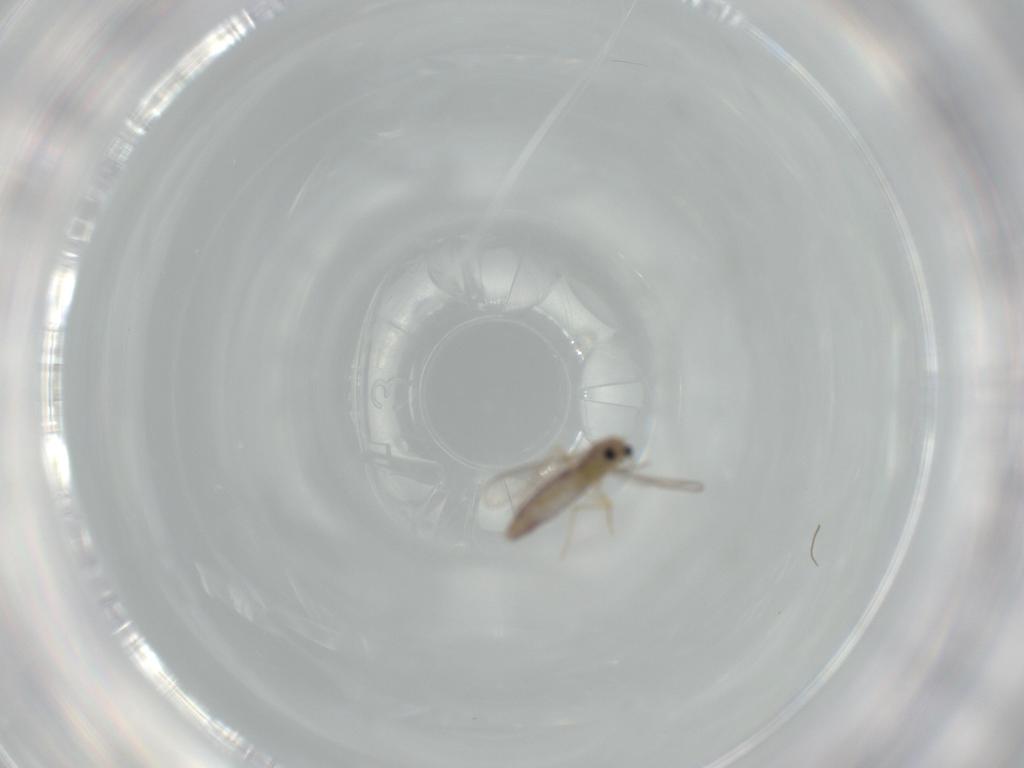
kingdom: Animalia
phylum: Arthropoda
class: Insecta
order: Diptera
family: Chironomidae
